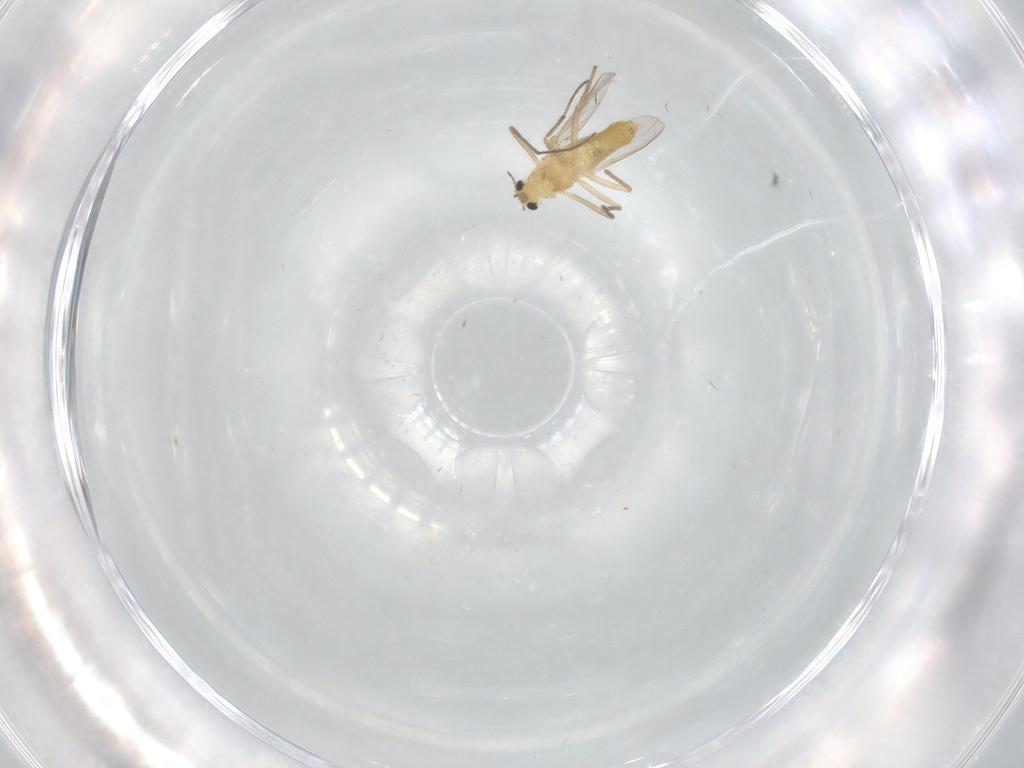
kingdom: Animalia
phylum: Arthropoda
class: Insecta
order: Diptera
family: Chironomidae
